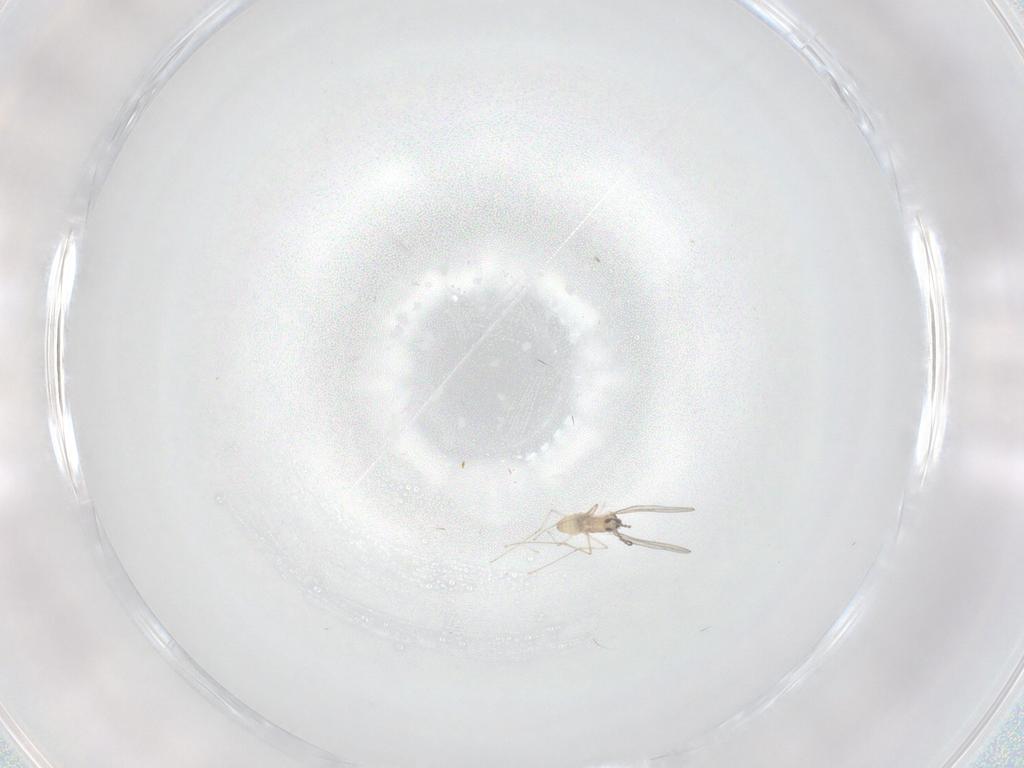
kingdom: Animalia
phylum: Arthropoda
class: Insecta
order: Diptera
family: Cecidomyiidae
